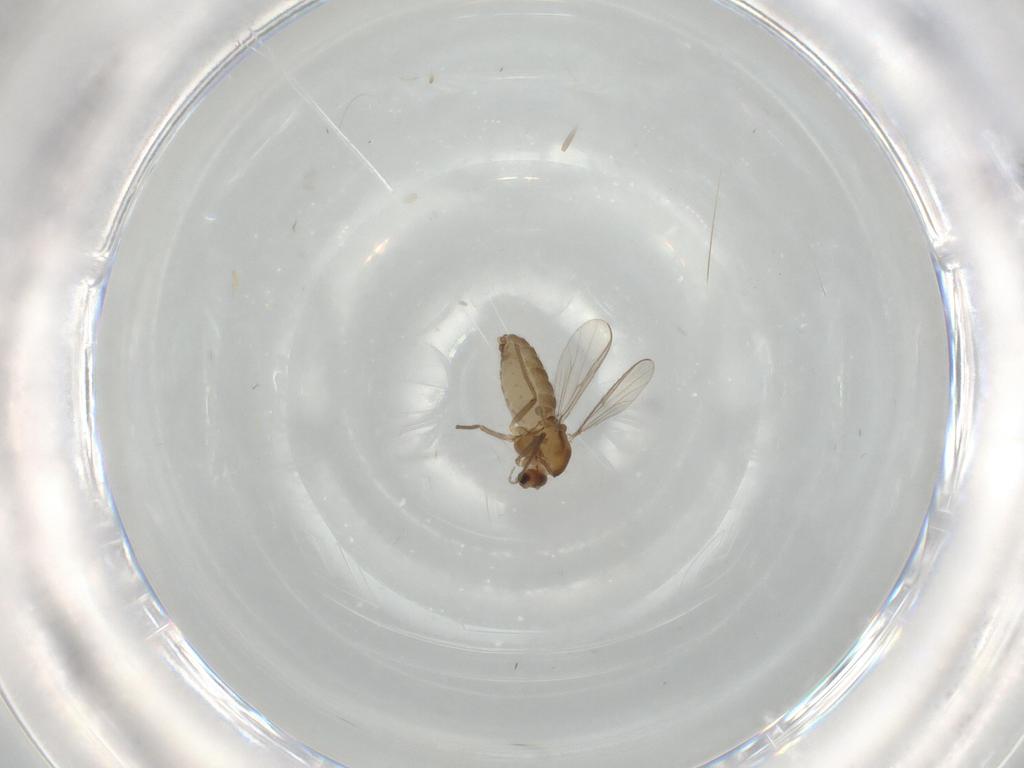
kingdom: Animalia
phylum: Arthropoda
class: Insecta
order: Diptera
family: Chironomidae
